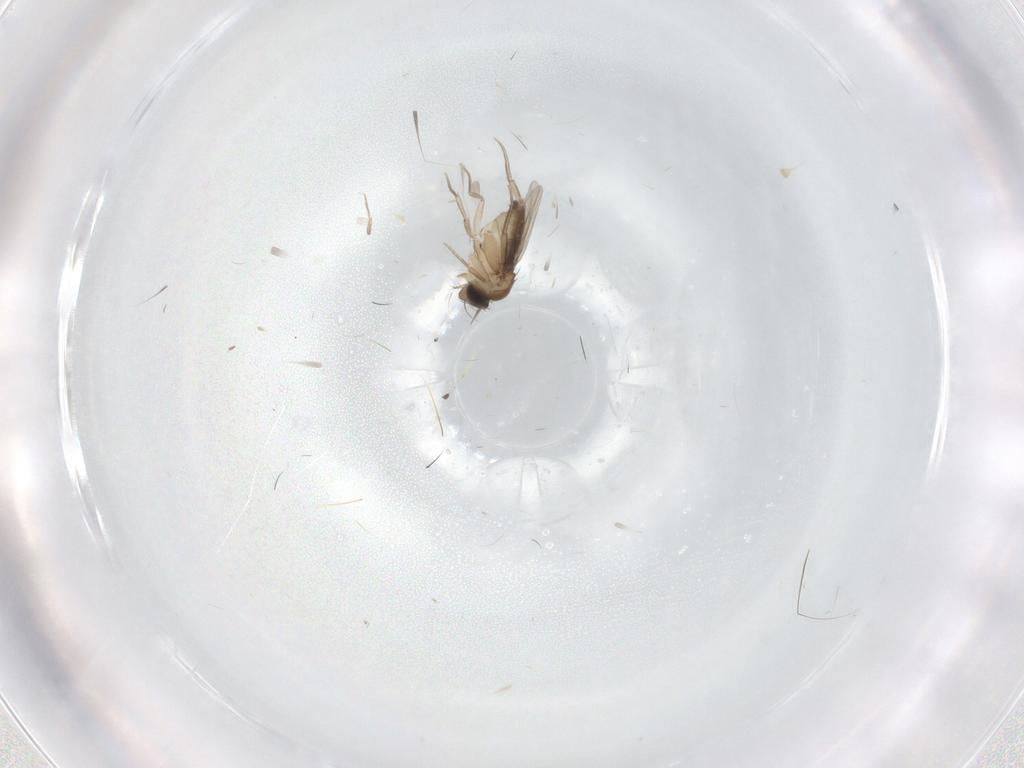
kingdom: Animalia
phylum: Arthropoda
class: Insecta
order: Diptera
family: Phoridae
